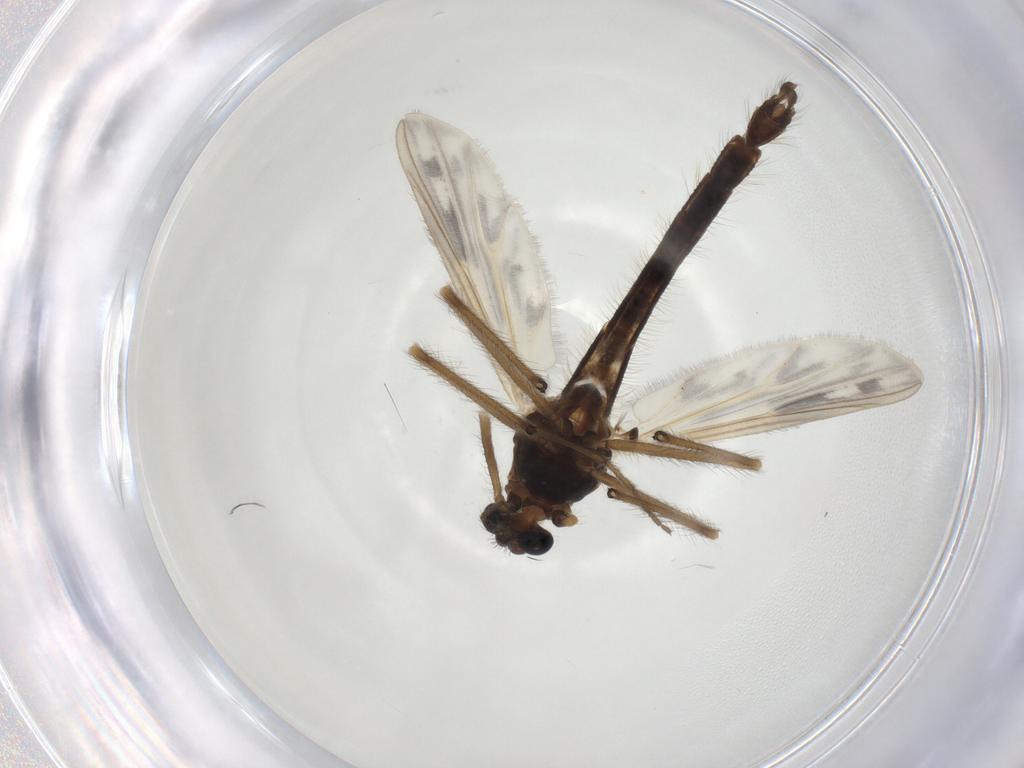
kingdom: Animalia
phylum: Arthropoda
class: Insecta
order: Diptera
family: Chironomidae
